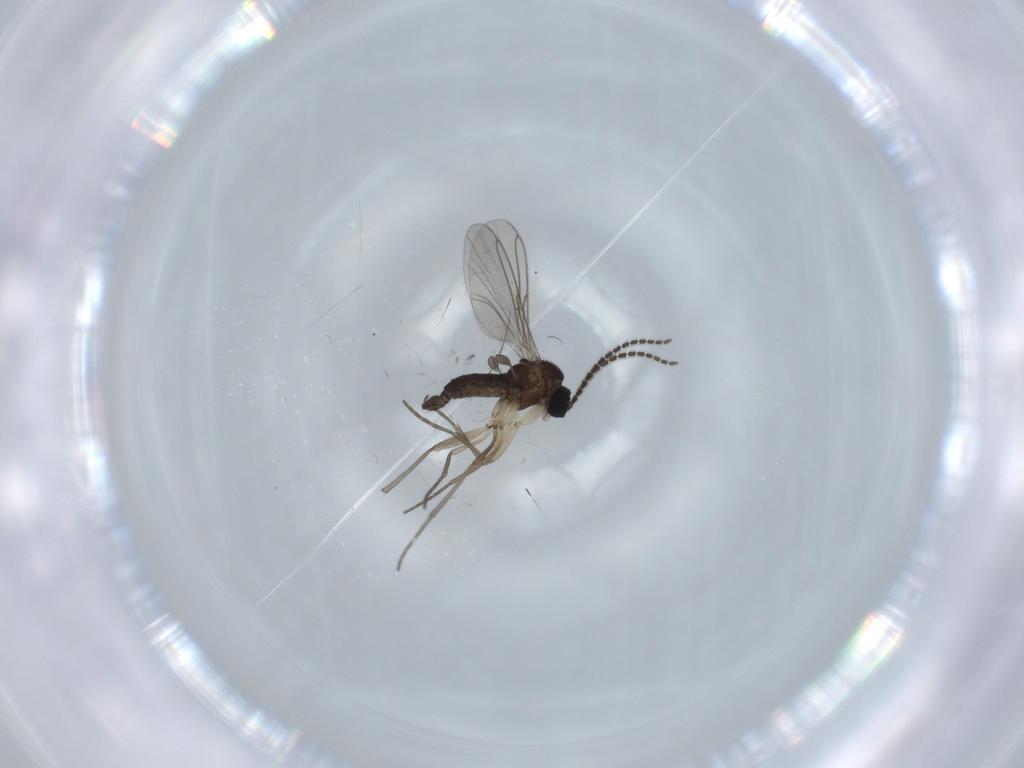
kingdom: Animalia
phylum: Arthropoda
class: Insecta
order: Diptera
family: Sciaridae
